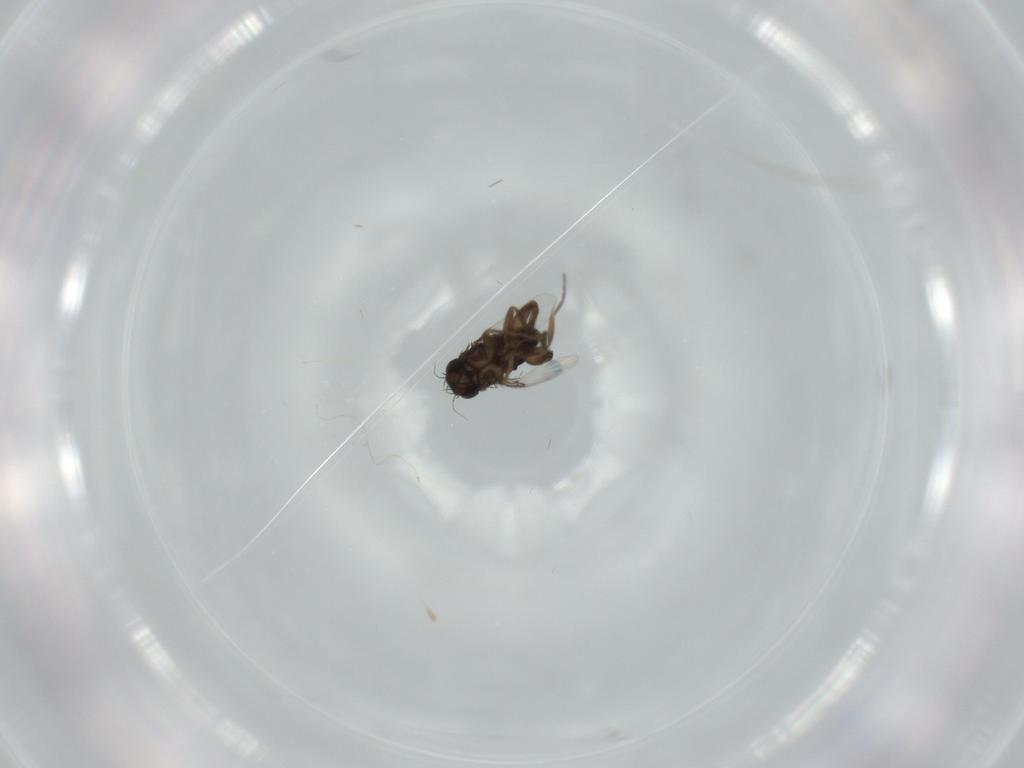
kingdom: Animalia
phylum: Arthropoda
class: Insecta
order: Diptera
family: Phoridae
